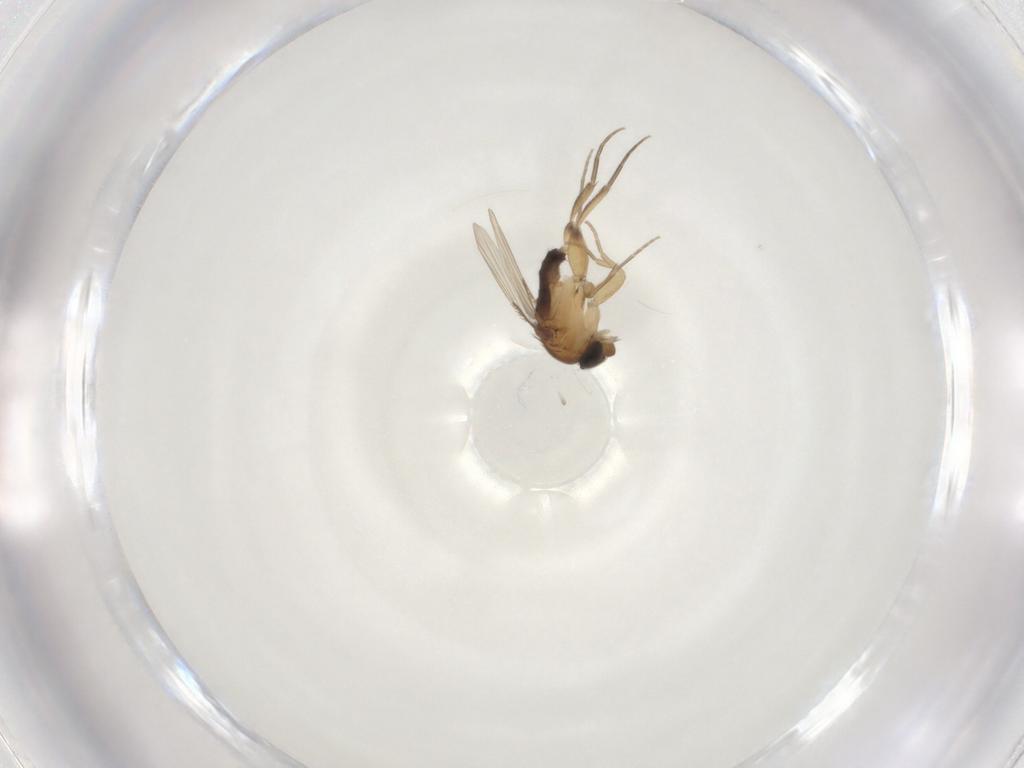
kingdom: Animalia
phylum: Arthropoda
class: Insecta
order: Diptera
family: Phoridae
